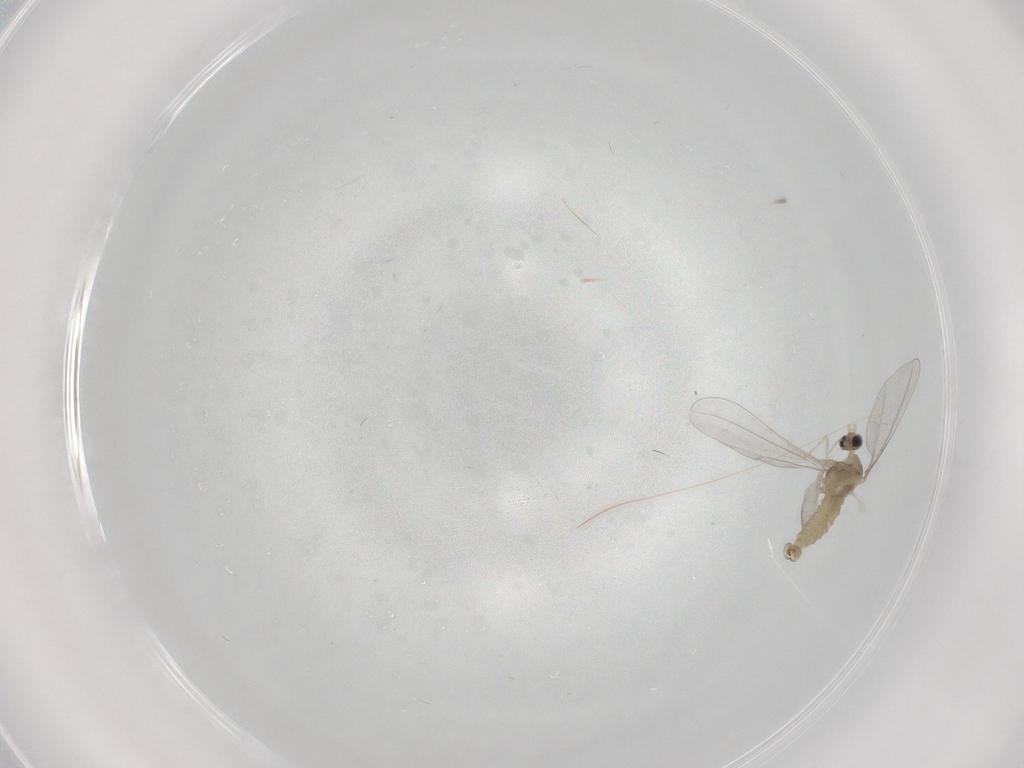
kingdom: Animalia
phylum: Arthropoda
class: Insecta
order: Diptera
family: Cecidomyiidae
